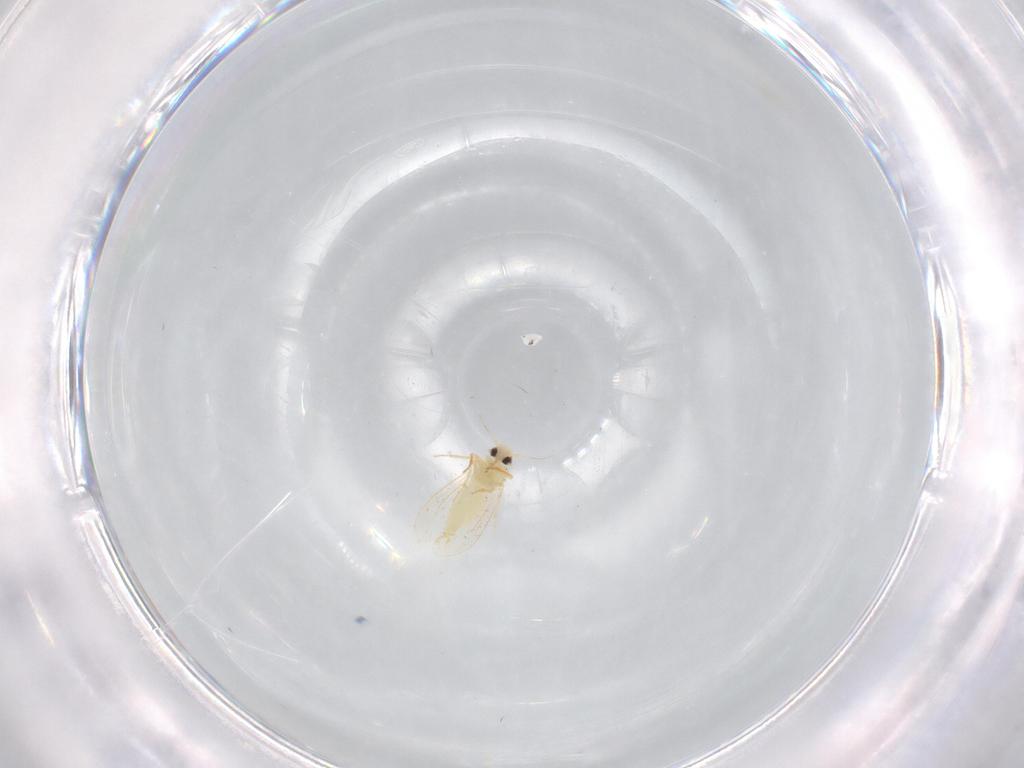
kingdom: Animalia
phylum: Arthropoda
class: Insecta
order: Hemiptera
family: Aleyrodidae
